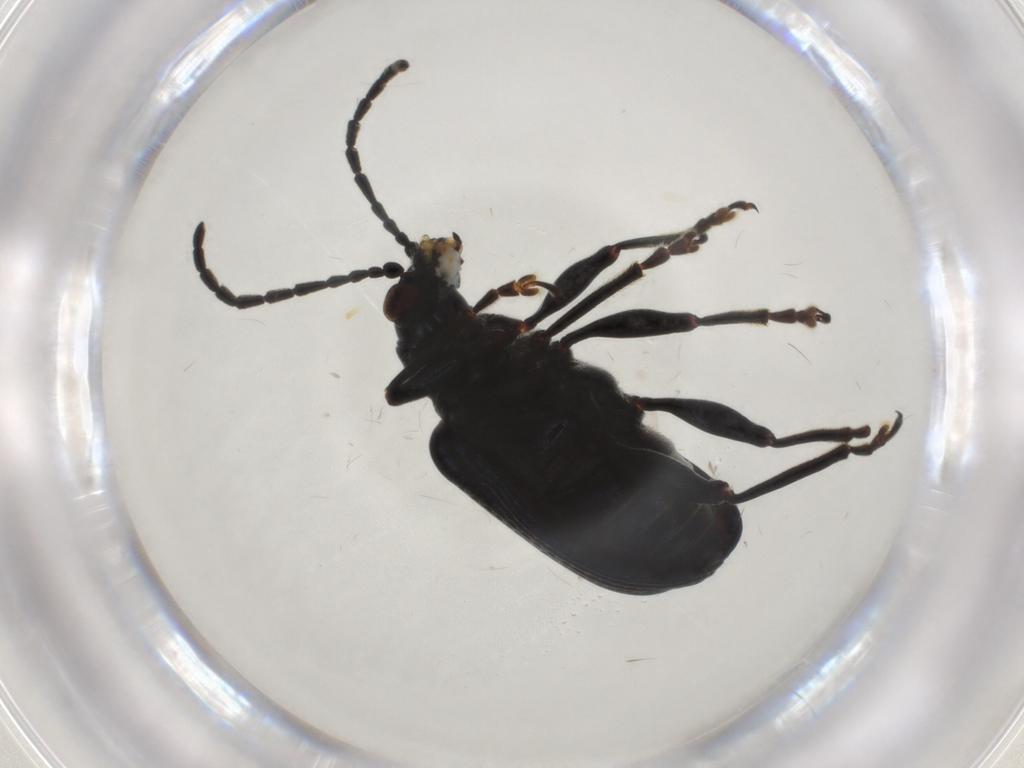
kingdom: Animalia
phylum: Arthropoda
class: Insecta
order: Coleoptera
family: Chrysomelidae
